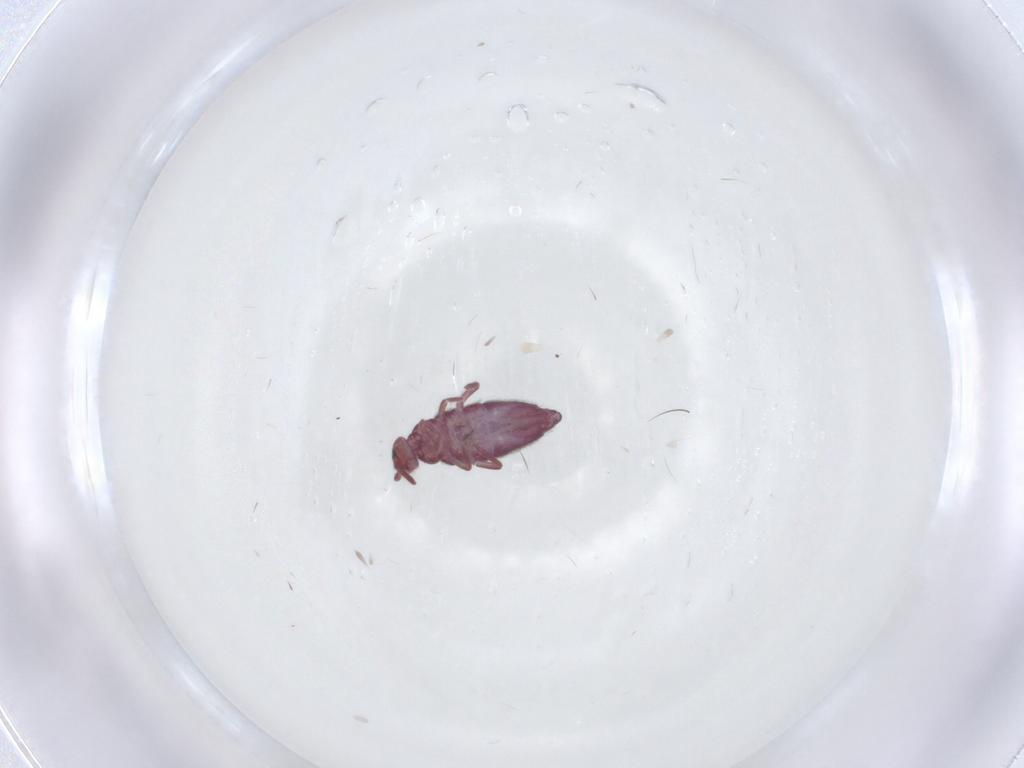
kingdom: Animalia
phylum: Arthropoda
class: Collembola
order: Entomobryomorpha
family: Entomobryidae
